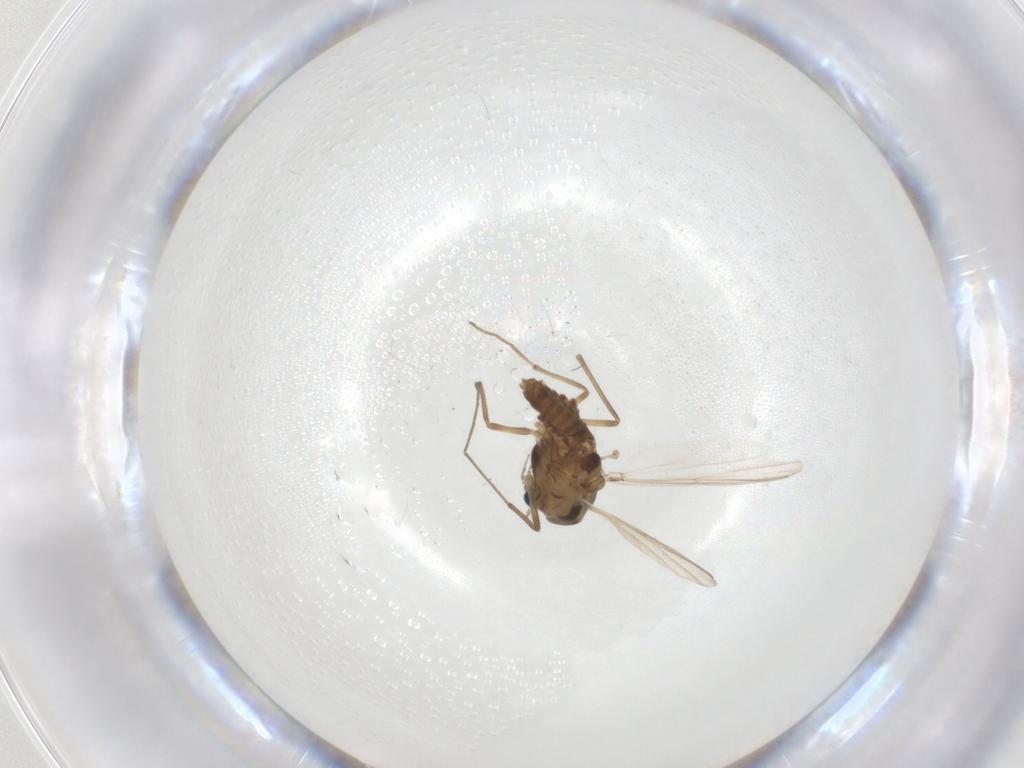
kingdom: Animalia
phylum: Arthropoda
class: Insecta
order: Diptera
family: Chironomidae
